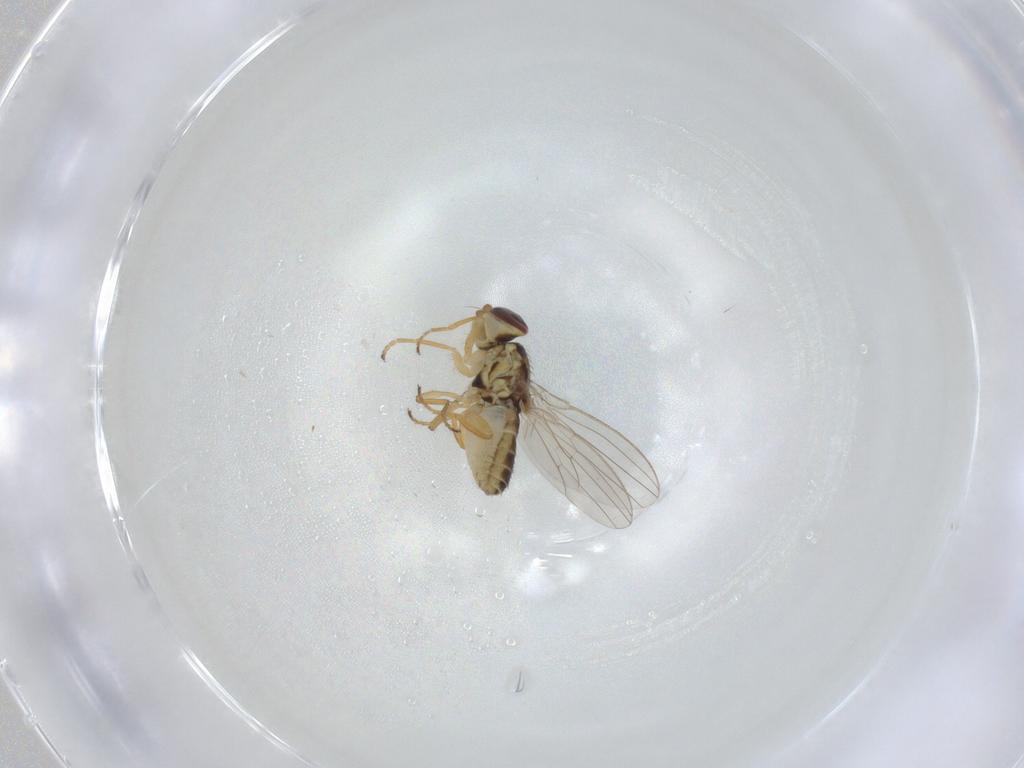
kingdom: Animalia
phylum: Arthropoda
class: Insecta
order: Diptera
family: Chyromyidae
